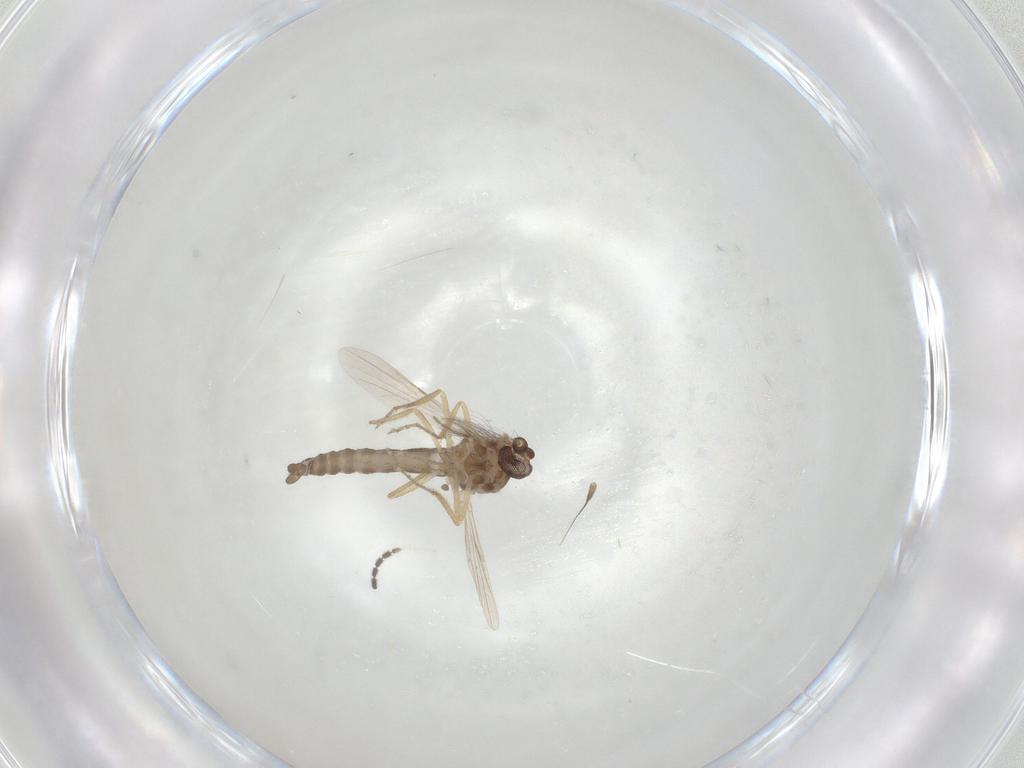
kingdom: Animalia
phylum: Arthropoda
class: Insecta
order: Diptera
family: Ceratopogonidae
